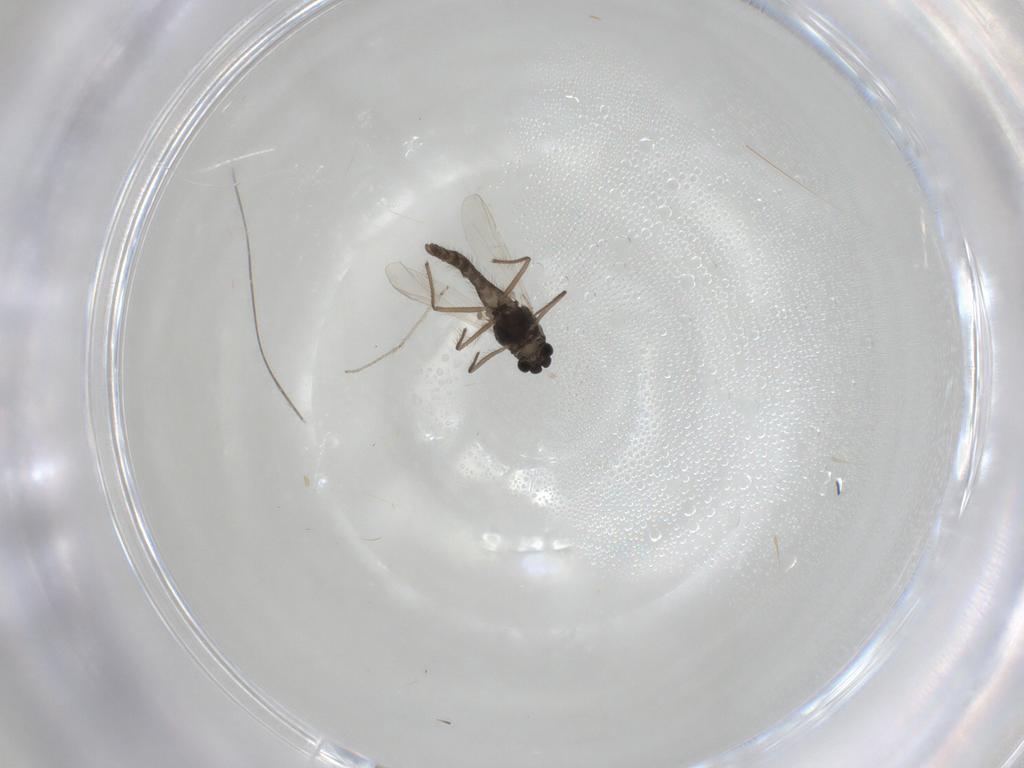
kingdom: Animalia
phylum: Arthropoda
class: Insecta
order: Diptera
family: Chironomidae
